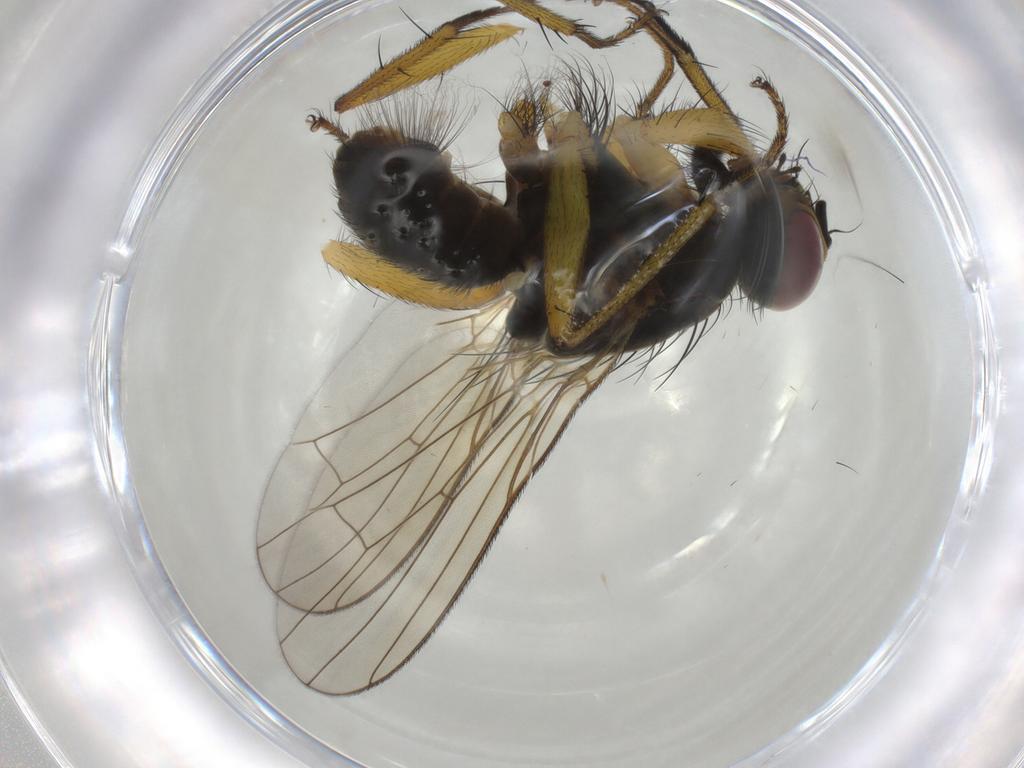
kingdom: Animalia
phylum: Arthropoda
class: Insecta
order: Diptera
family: Muscidae
